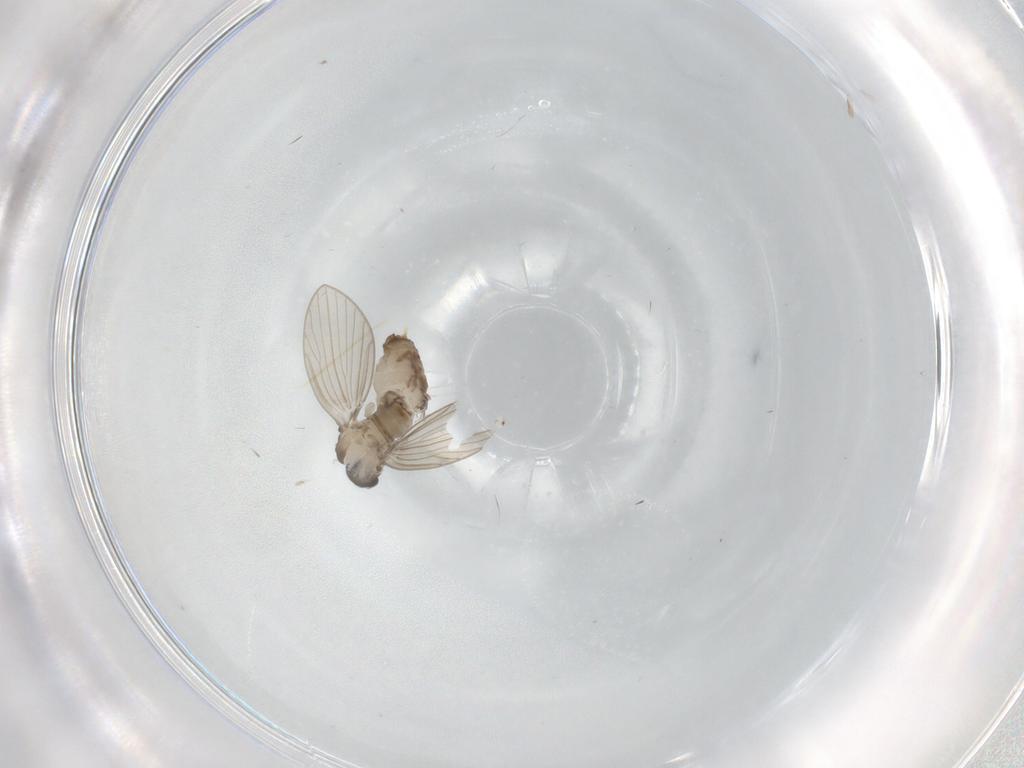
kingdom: Animalia
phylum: Arthropoda
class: Insecta
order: Diptera
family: Psychodidae
